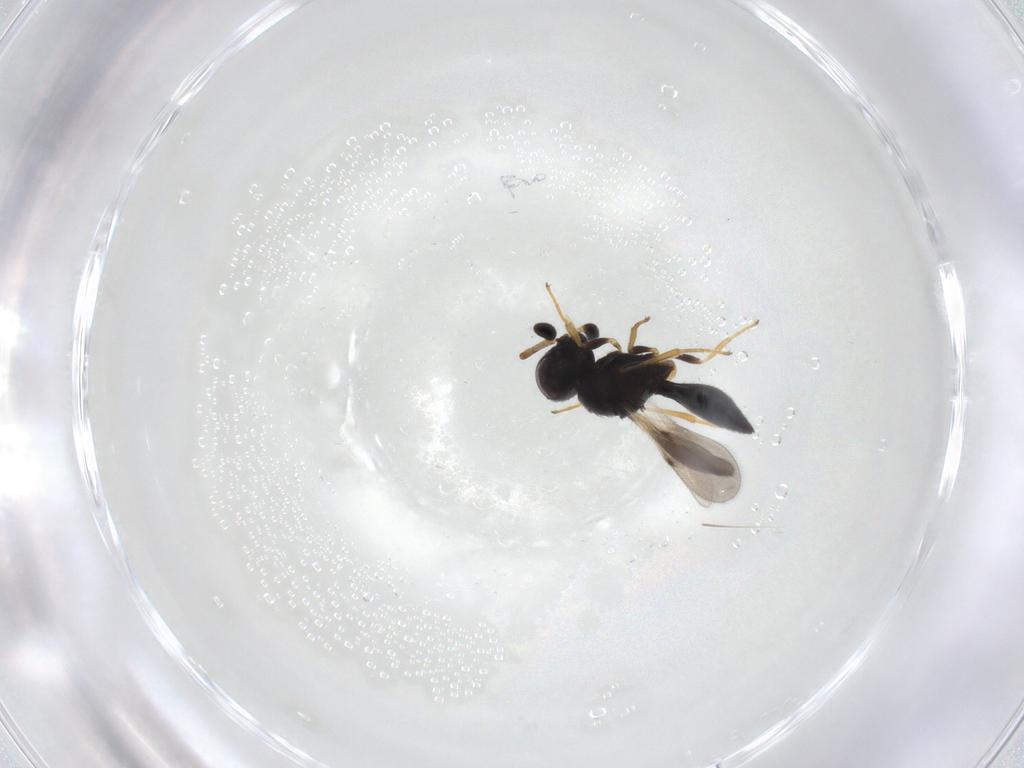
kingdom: Animalia
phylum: Arthropoda
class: Insecta
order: Hymenoptera
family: Scelionidae
